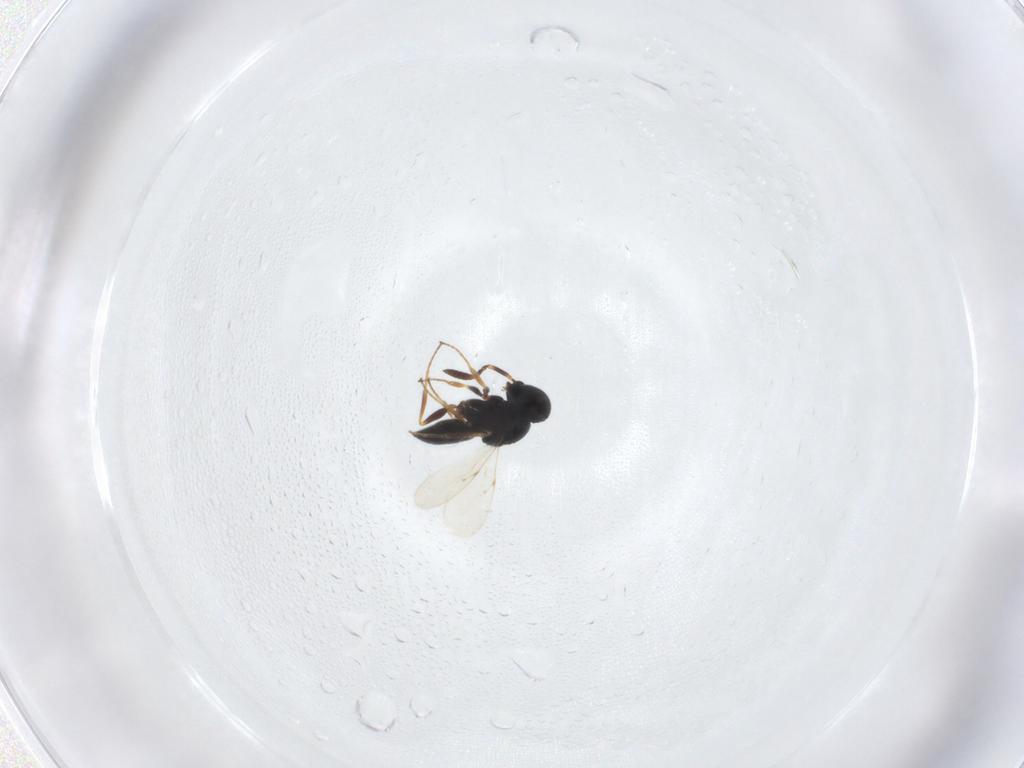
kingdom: Animalia
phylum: Arthropoda
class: Insecta
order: Hymenoptera
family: Scelionidae
